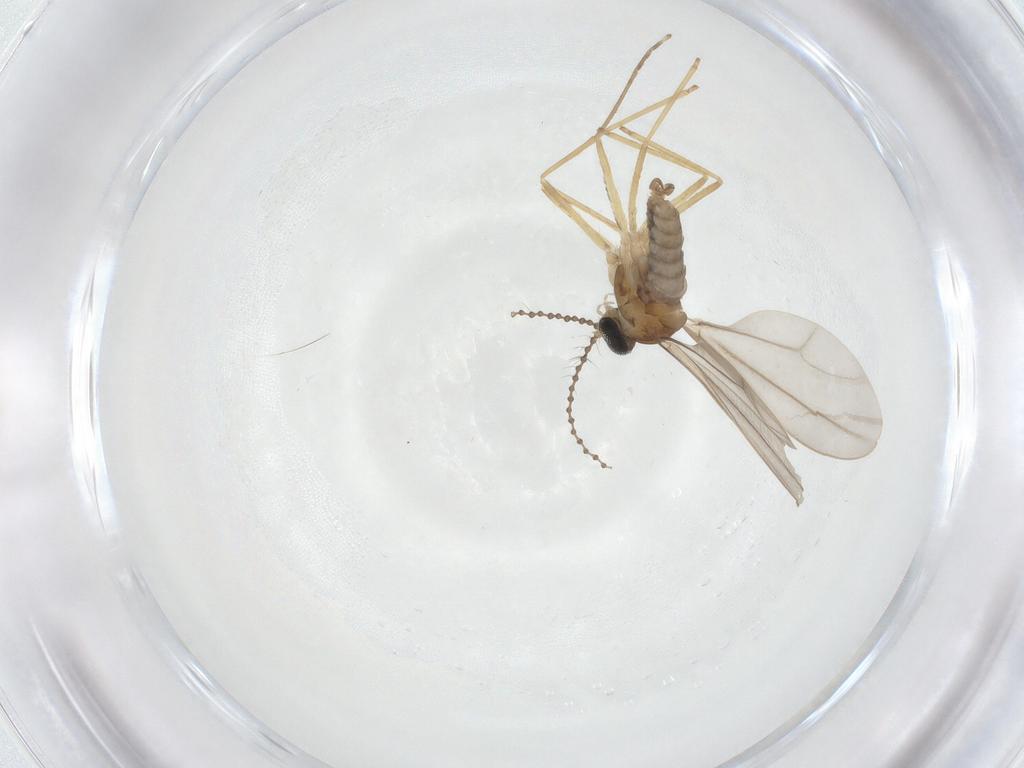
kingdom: Animalia
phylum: Arthropoda
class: Insecta
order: Diptera
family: Cecidomyiidae
